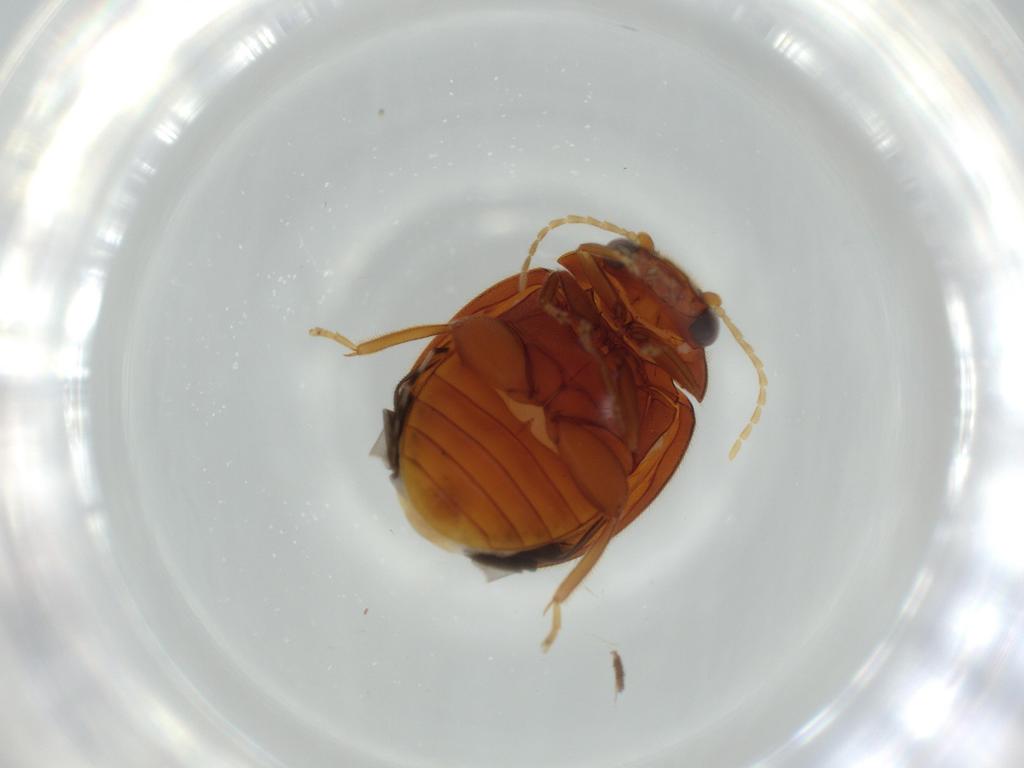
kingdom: Animalia
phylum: Arthropoda
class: Insecta
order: Coleoptera
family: Scirtidae
